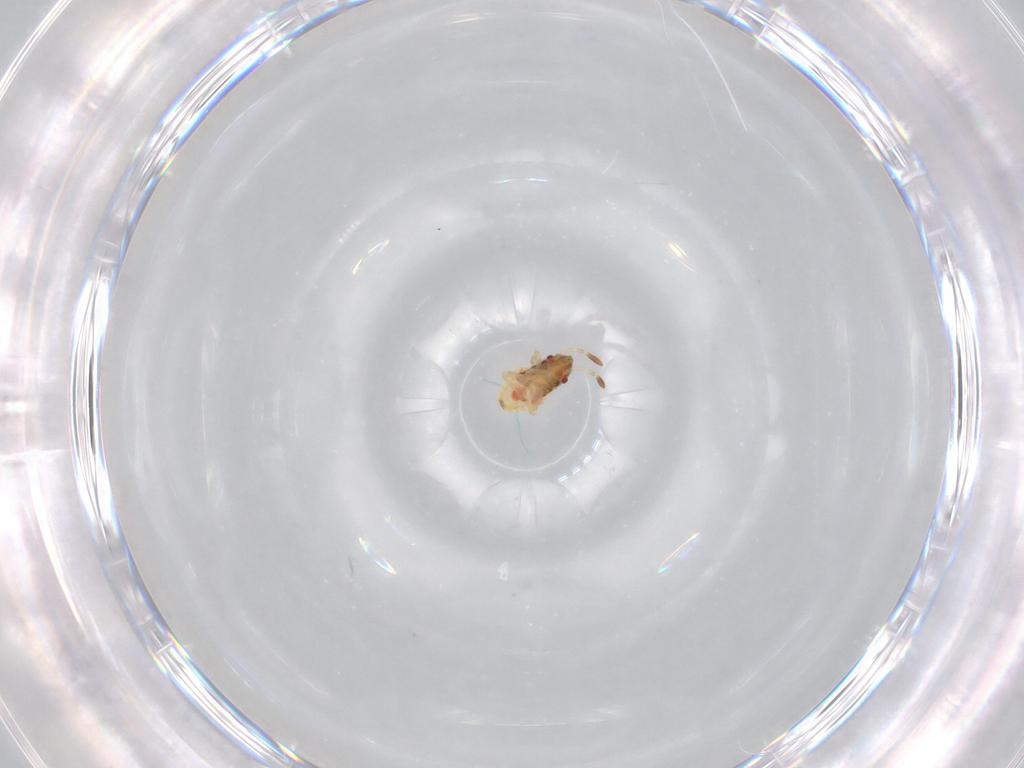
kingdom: Animalia
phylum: Arthropoda
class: Insecta
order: Hemiptera
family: Lygaeidae
